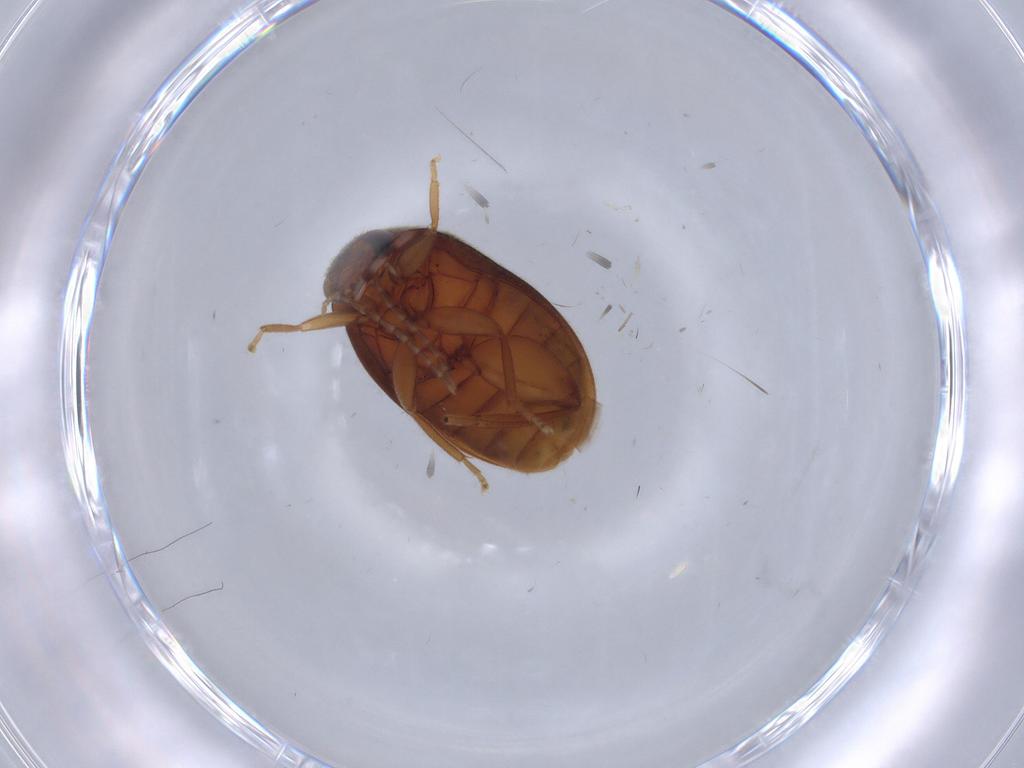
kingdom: Animalia
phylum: Arthropoda
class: Insecta
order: Coleoptera
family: Scirtidae
